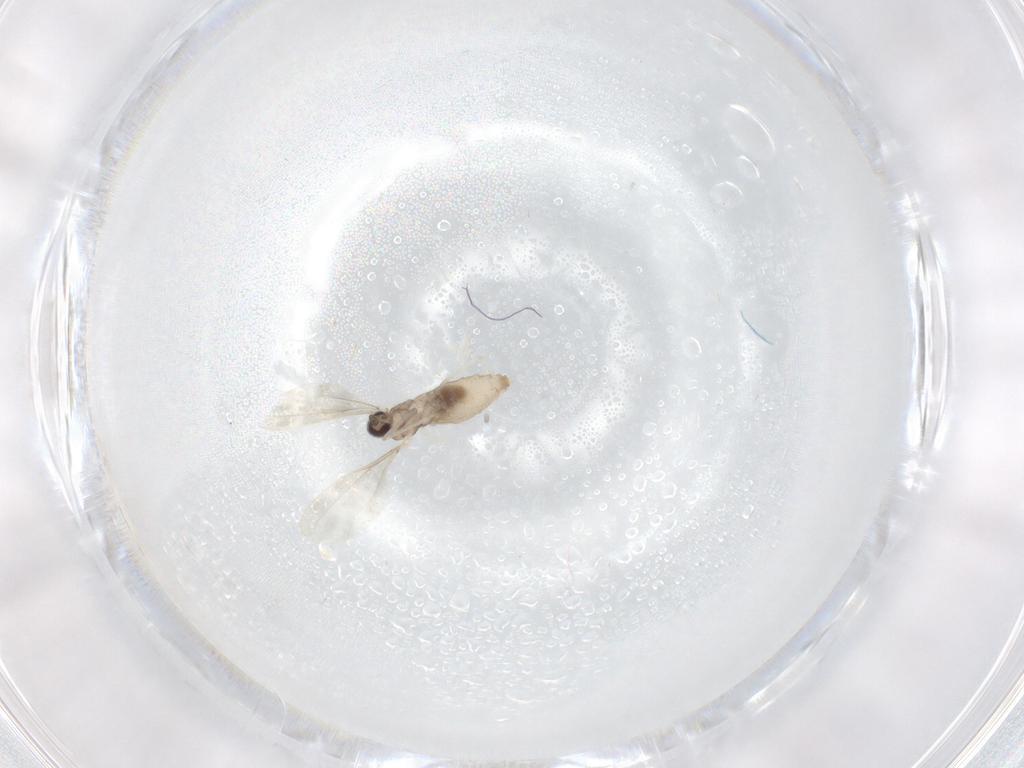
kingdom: Animalia
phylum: Arthropoda
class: Insecta
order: Diptera
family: Cecidomyiidae
